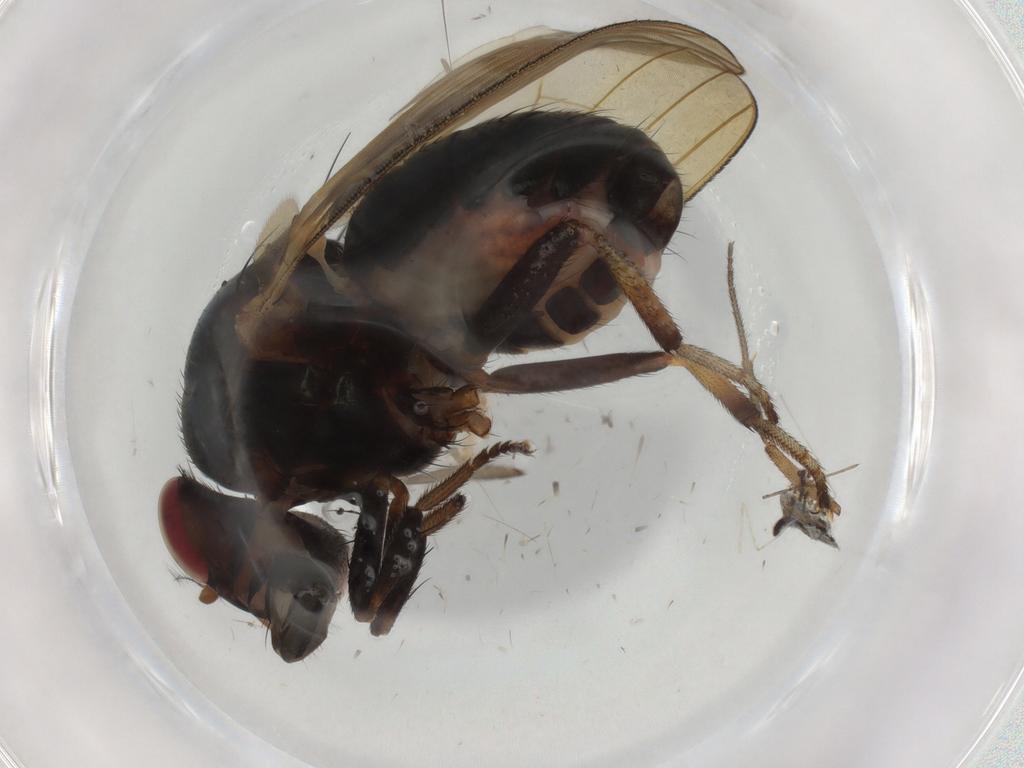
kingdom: Animalia
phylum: Arthropoda
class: Insecta
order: Diptera
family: Lauxaniidae
